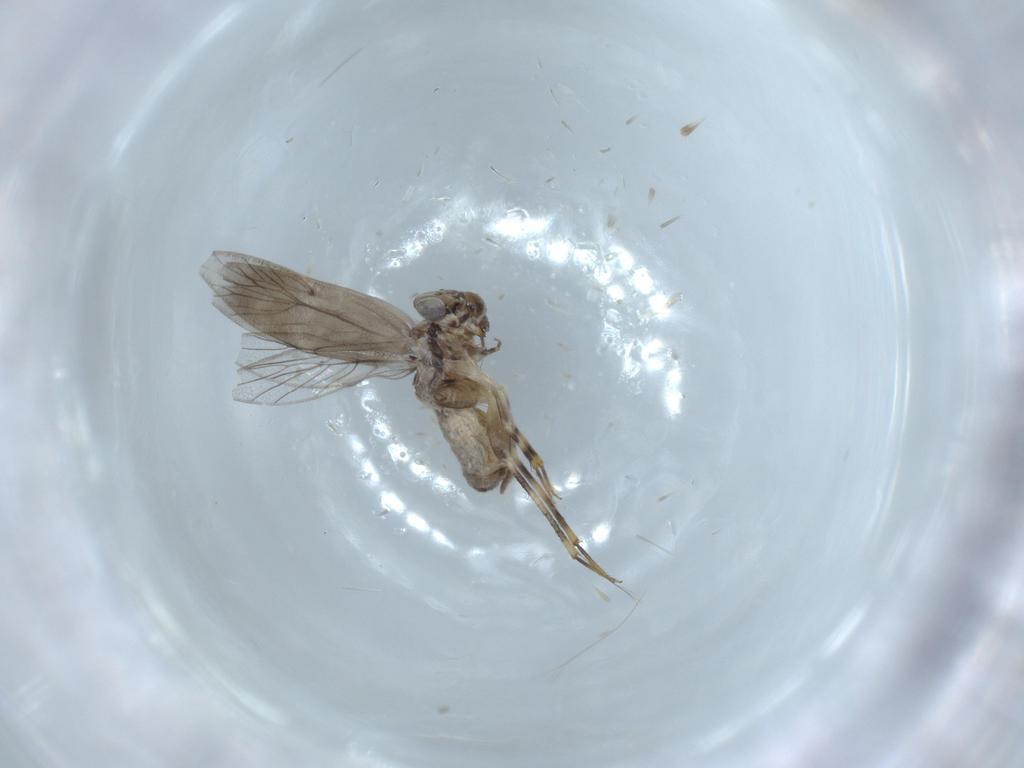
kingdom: Animalia
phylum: Arthropoda
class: Insecta
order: Psocodea
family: Lepidopsocidae
